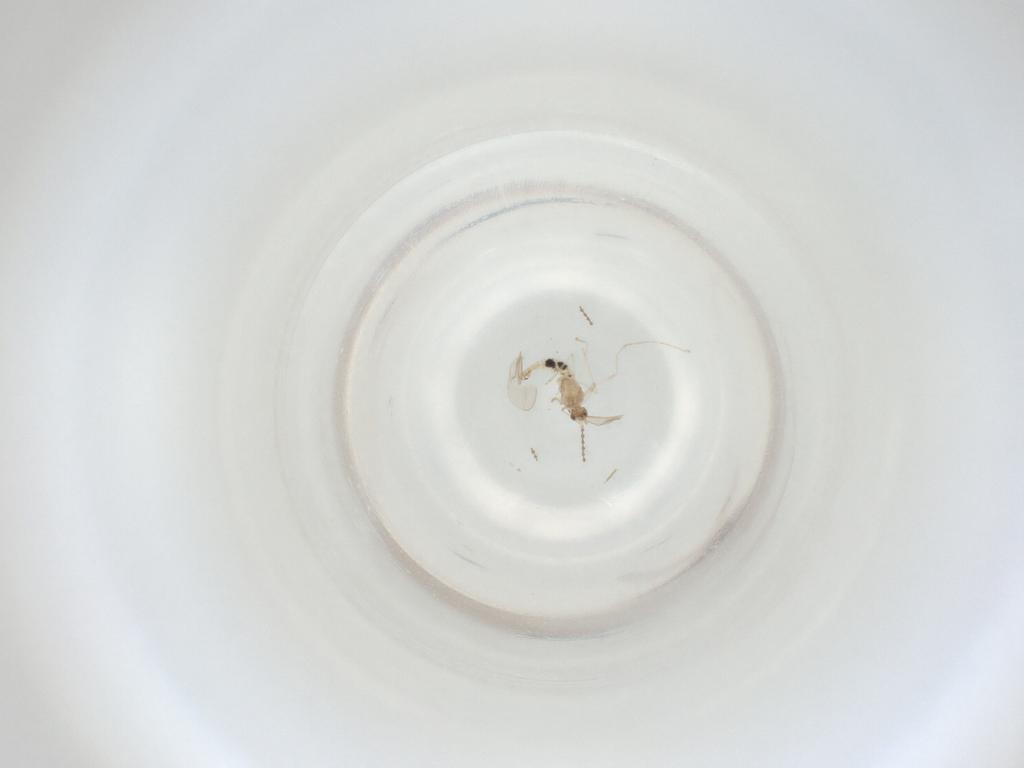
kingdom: Animalia
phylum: Arthropoda
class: Insecta
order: Diptera
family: Cecidomyiidae
